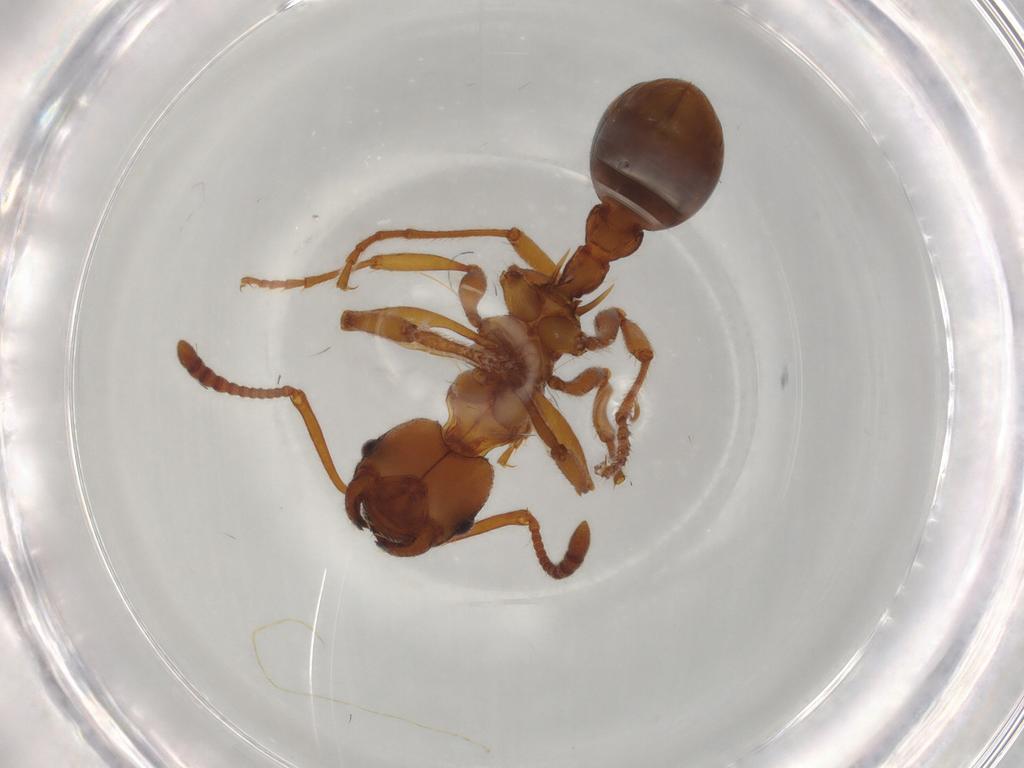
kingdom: Animalia
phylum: Arthropoda
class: Insecta
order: Hymenoptera
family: Formicidae
